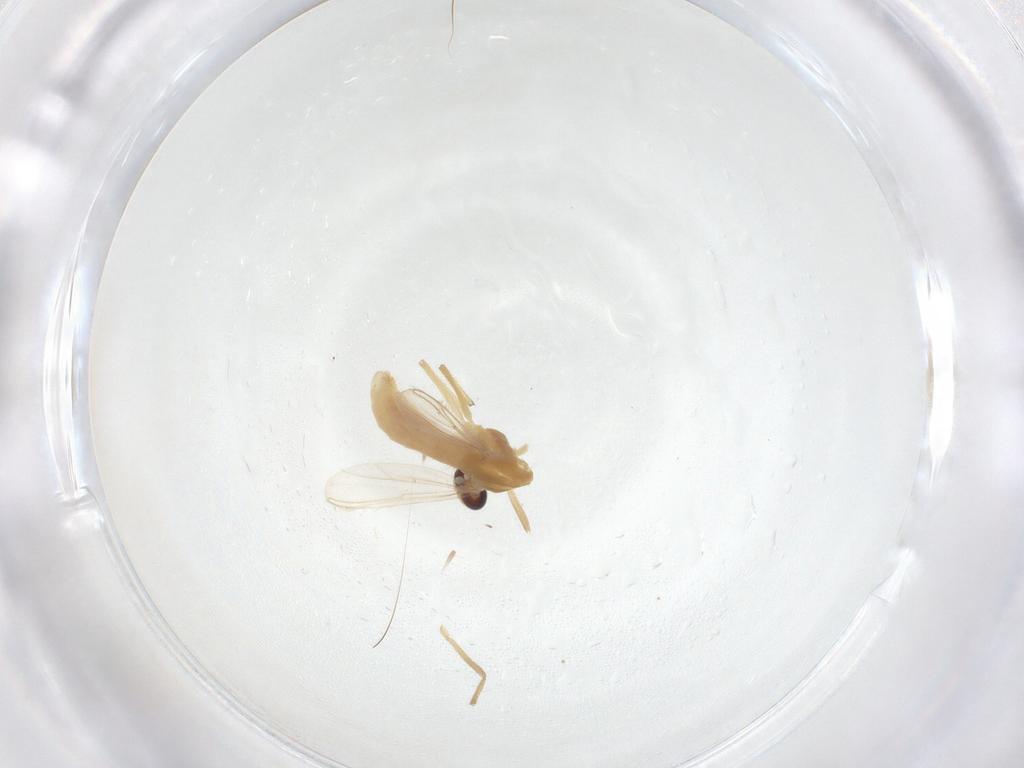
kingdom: Animalia
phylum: Arthropoda
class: Insecta
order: Diptera
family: Chironomidae
